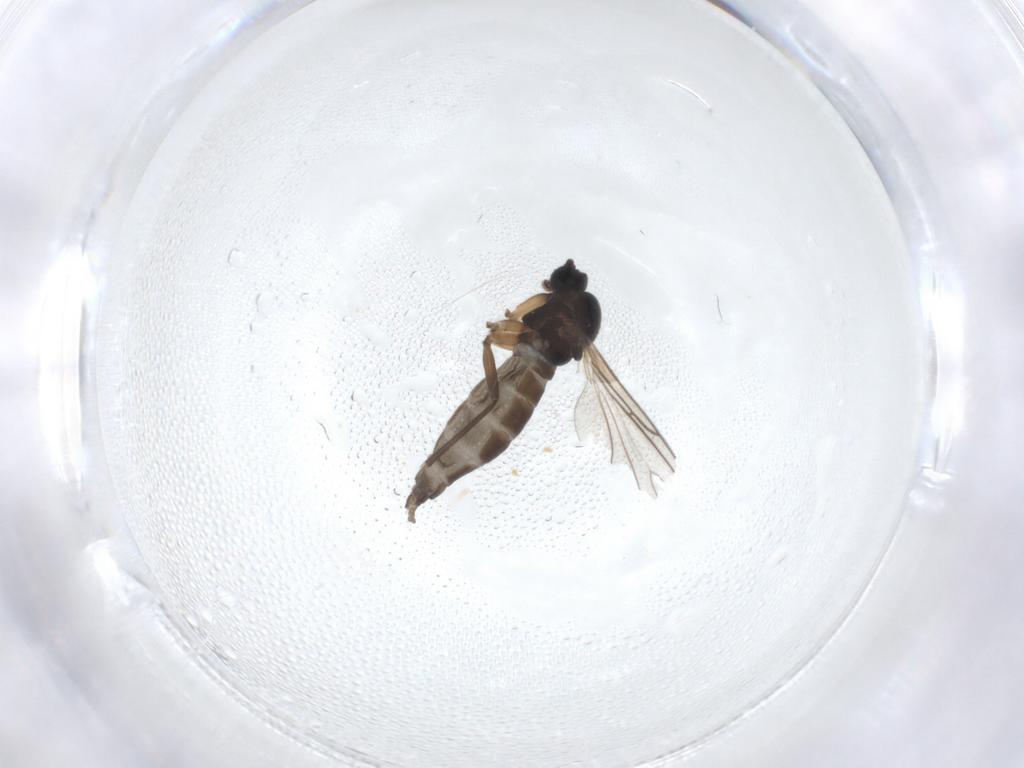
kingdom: Animalia
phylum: Arthropoda
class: Insecta
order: Diptera
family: Sciaridae
